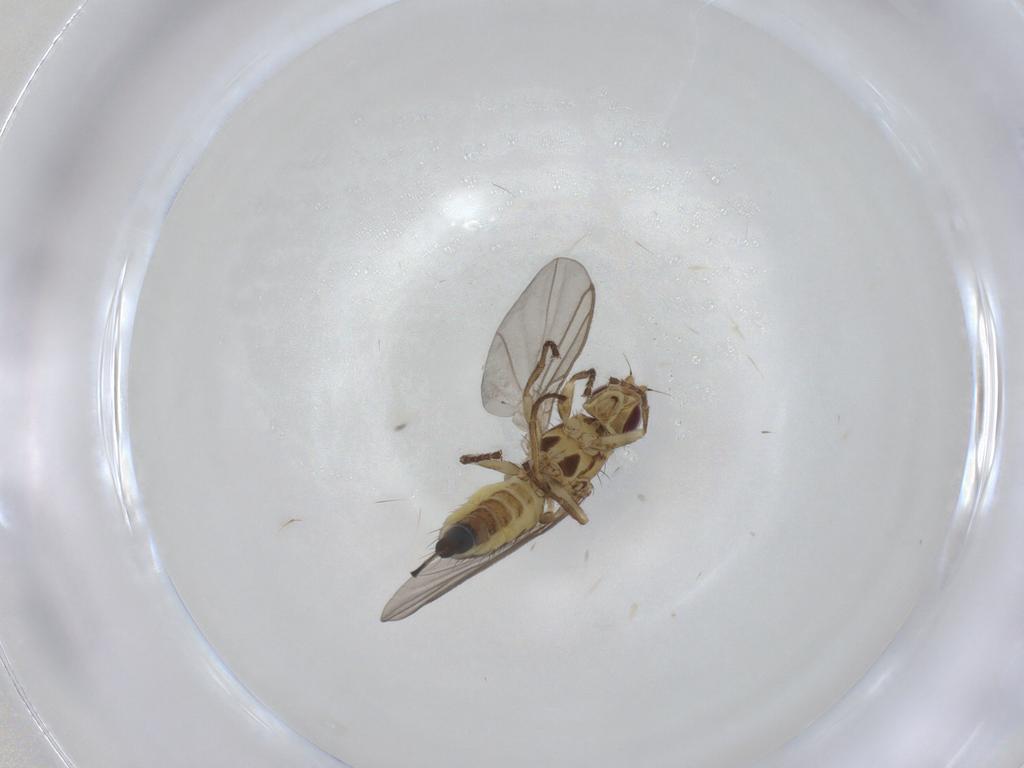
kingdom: Animalia
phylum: Arthropoda
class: Insecta
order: Diptera
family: Agromyzidae
